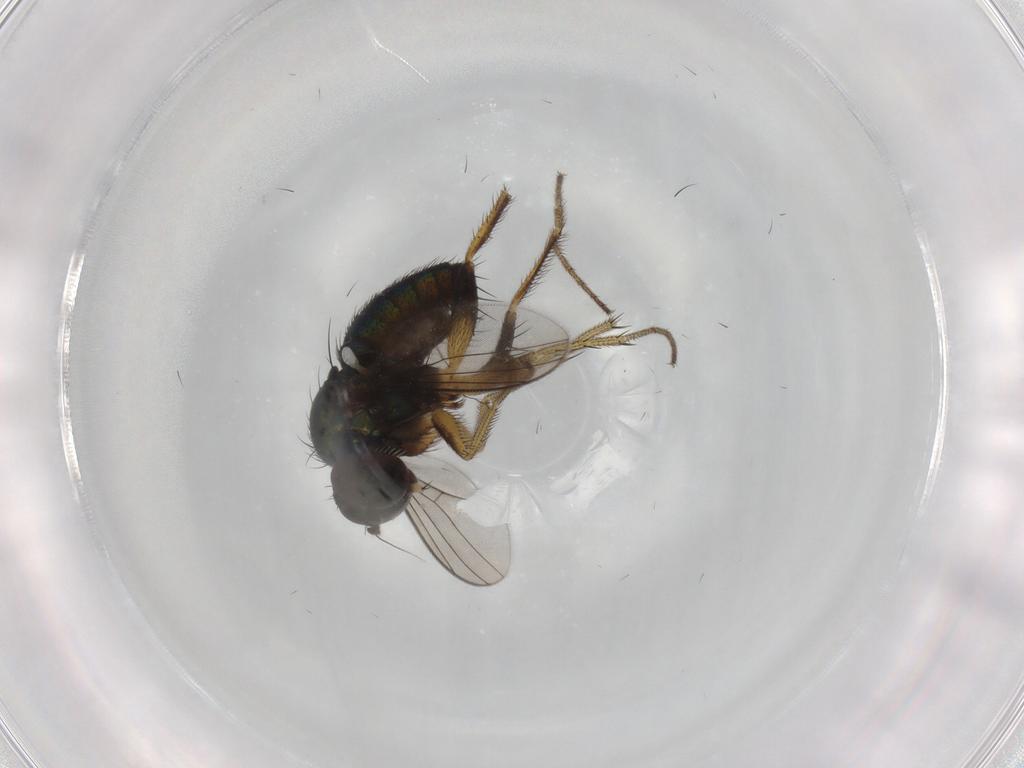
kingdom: Animalia
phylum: Arthropoda
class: Insecta
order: Diptera
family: Dolichopodidae
